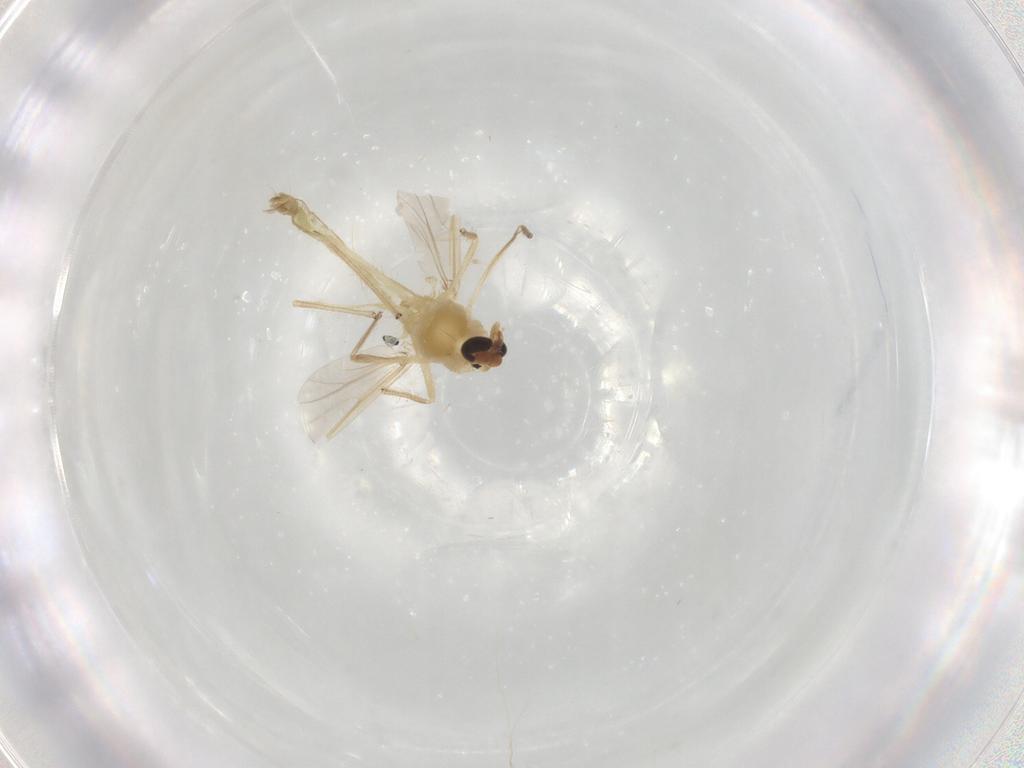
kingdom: Animalia
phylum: Arthropoda
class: Insecta
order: Diptera
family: Chironomidae
